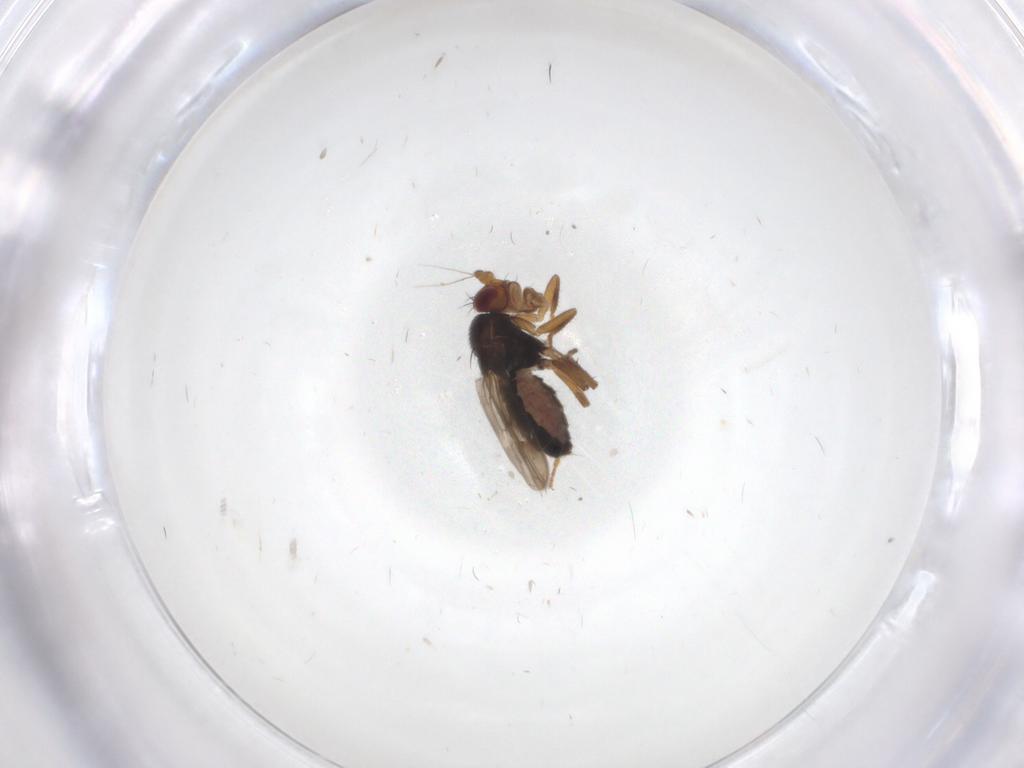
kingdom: Animalia
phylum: Arthropoda
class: Insecta
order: Diptera
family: Sphaeroceridae
